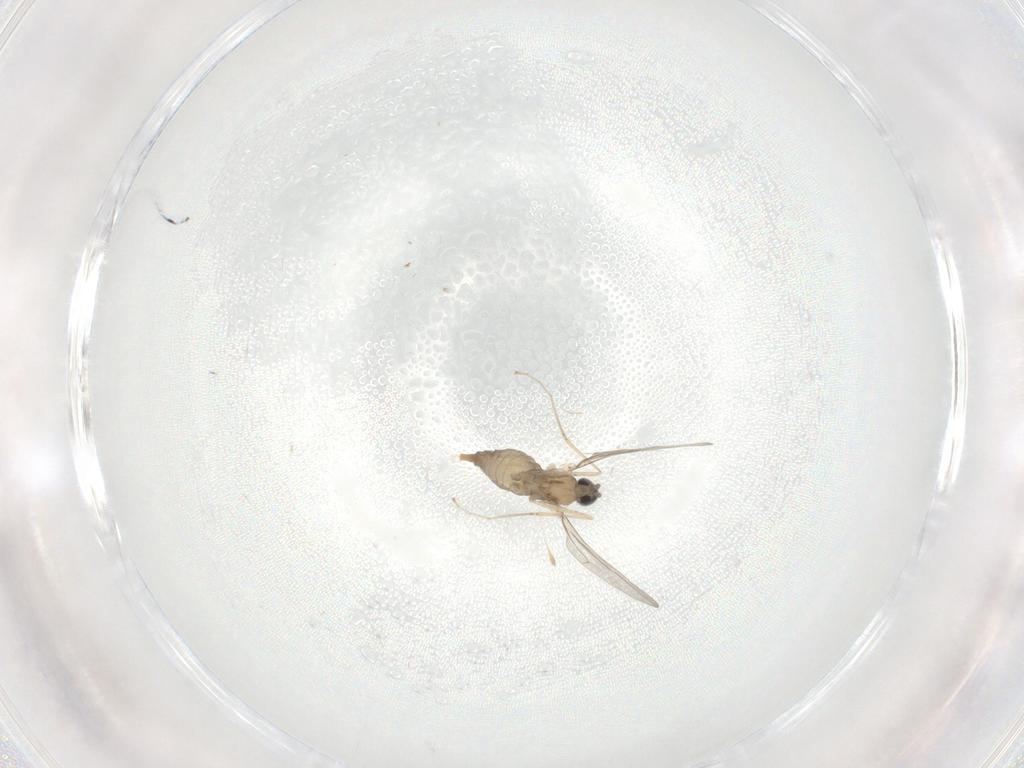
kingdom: Animalia
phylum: Arthropoda
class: Insecta
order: Diptera
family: Cecidomyiidae
